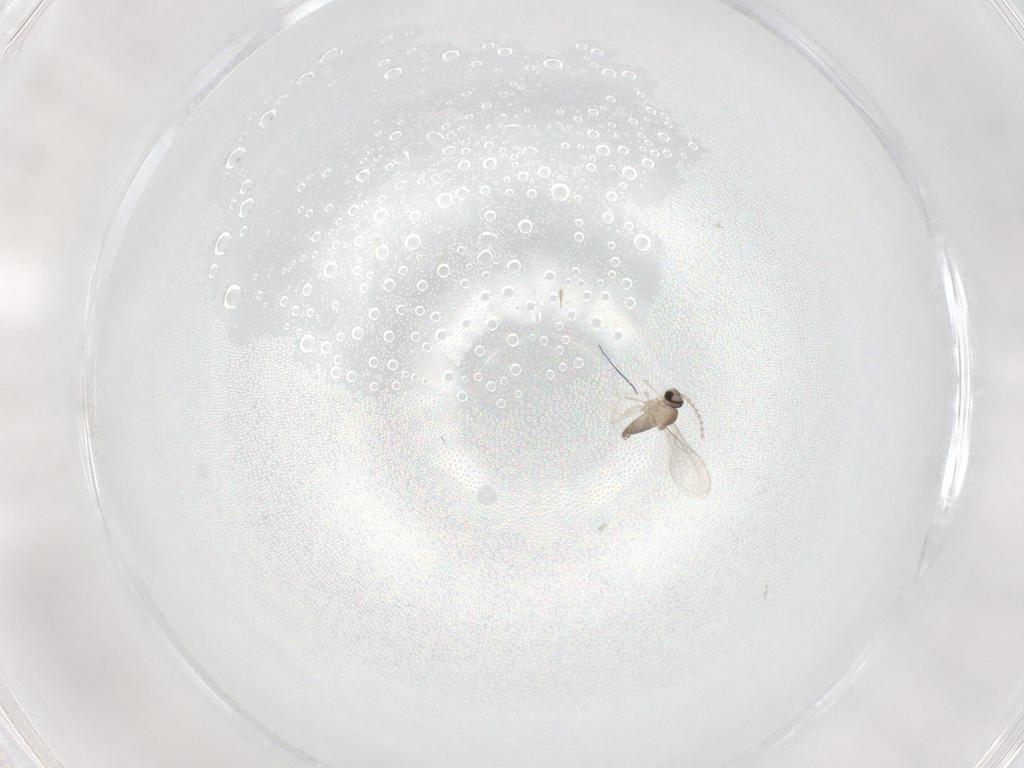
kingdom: Animalia
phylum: Arthropoda
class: Insecta
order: Diptera
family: Cecidomyiidae
